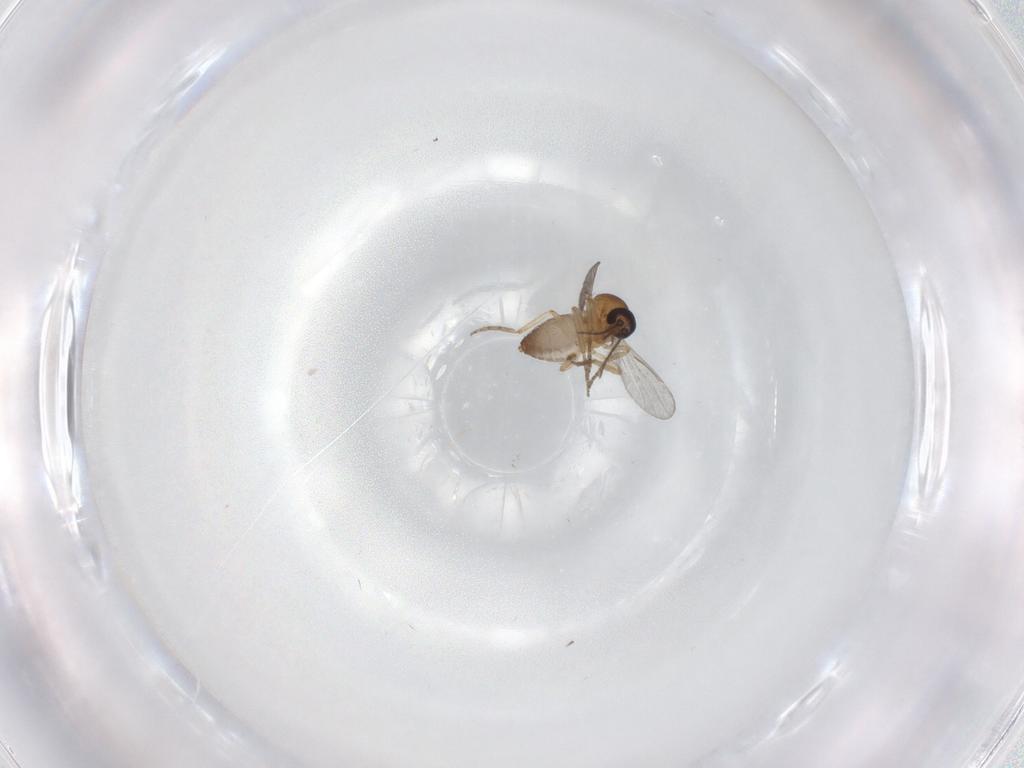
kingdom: Animalia
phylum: Arthropoda
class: Insecta
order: Diptera
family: Ceratopogonidae
